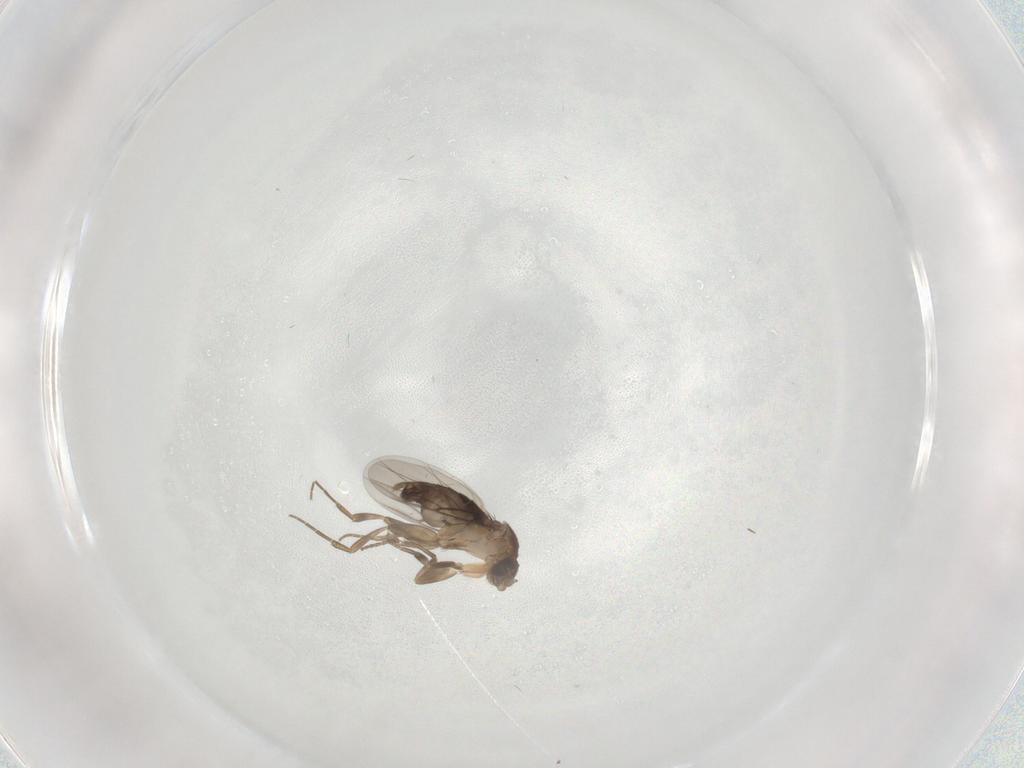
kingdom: Animalia
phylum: Arthropoda
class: Insecta
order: Diptera
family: Phoridae
